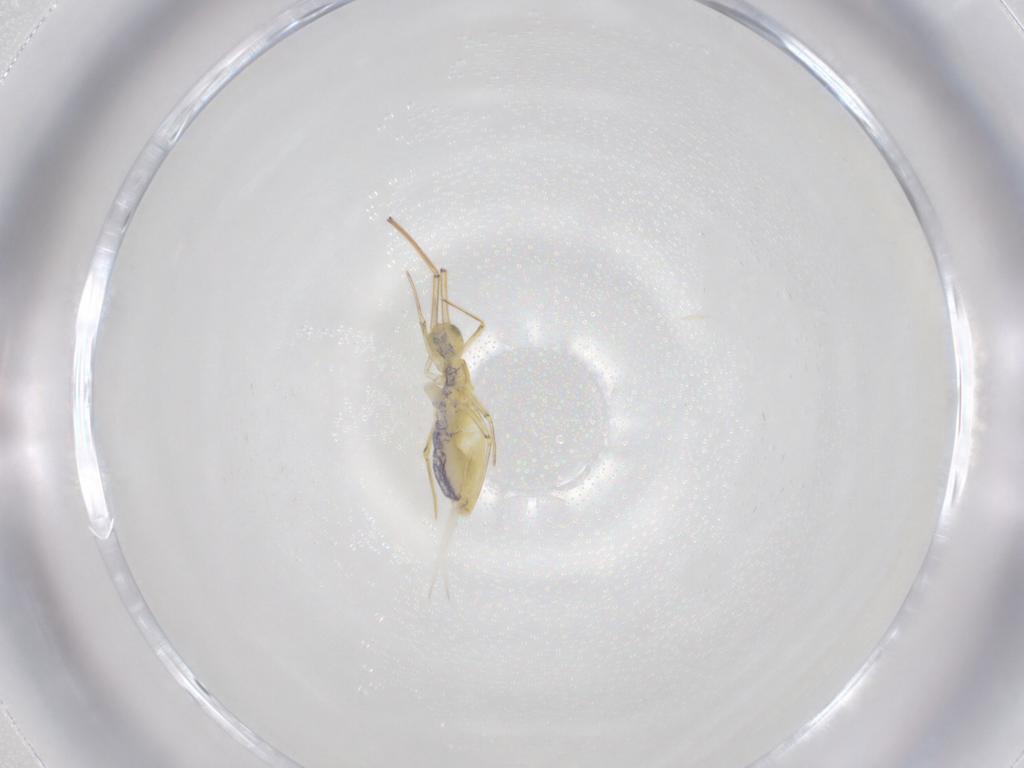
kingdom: Animalia
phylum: Arthropoda
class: Collembola
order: Entomobryomorpha
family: Paronellidae
